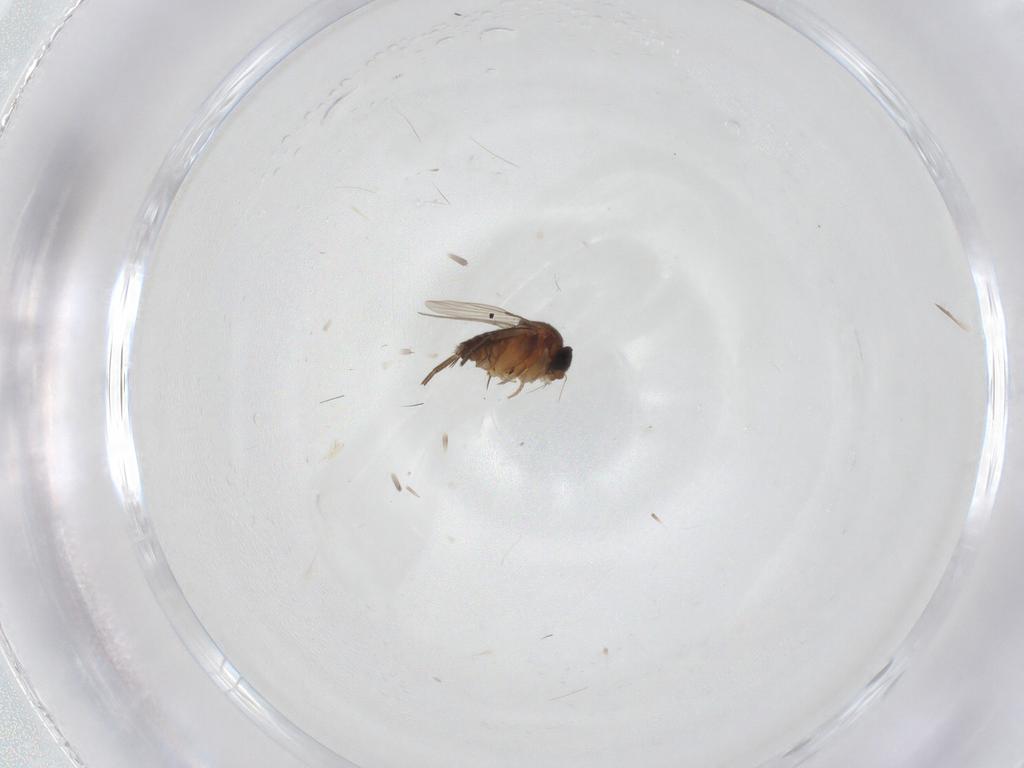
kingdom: Animalia
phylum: Arthropoda
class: Insecta
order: Diptera
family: Phoridae
